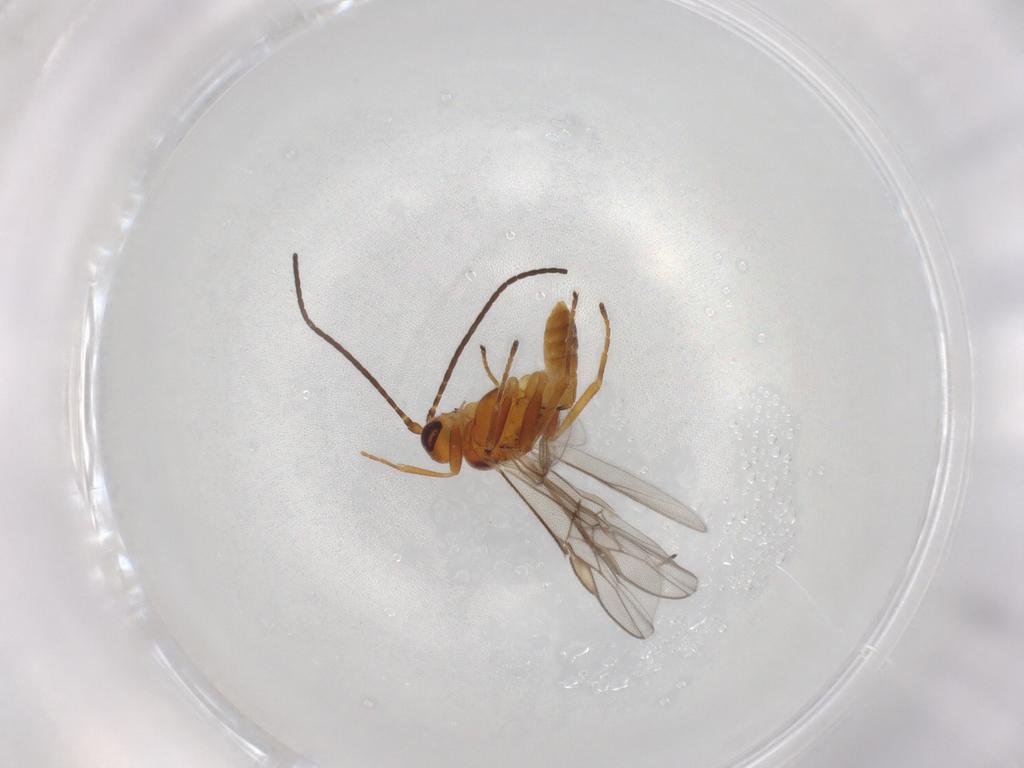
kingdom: Animalia
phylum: Arthropoda
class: Insecta
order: Hymenoptera
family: Braconidae
